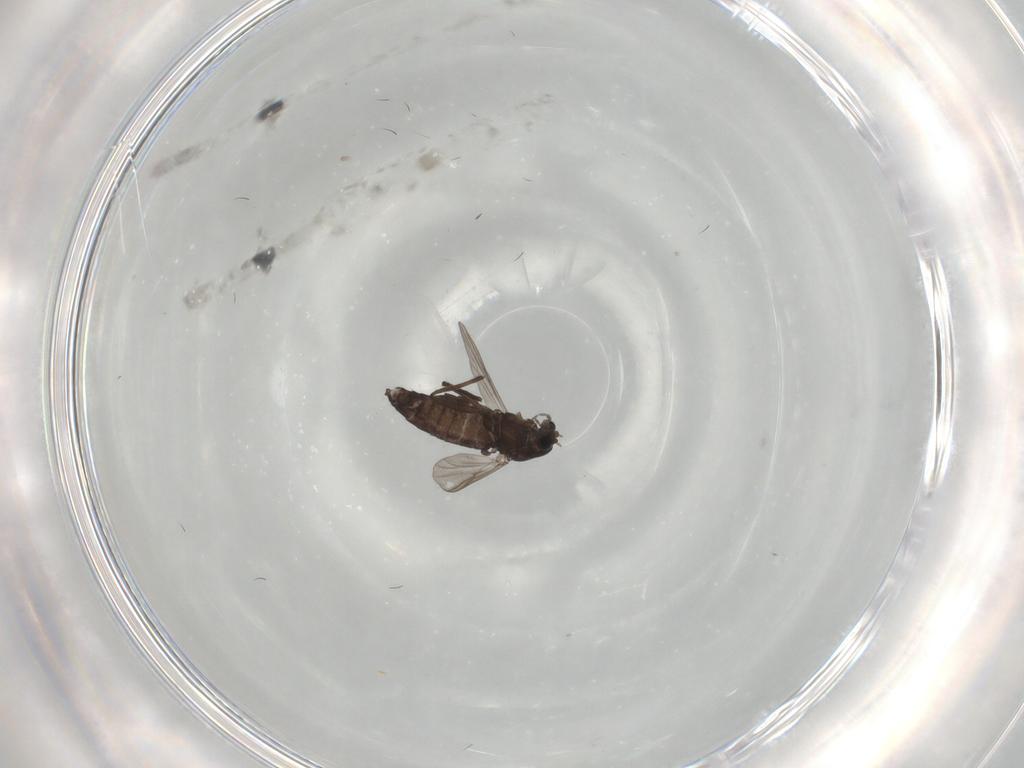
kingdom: Animalia
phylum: Arthropoda
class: Insecta
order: Diptera
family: Chironomidae
